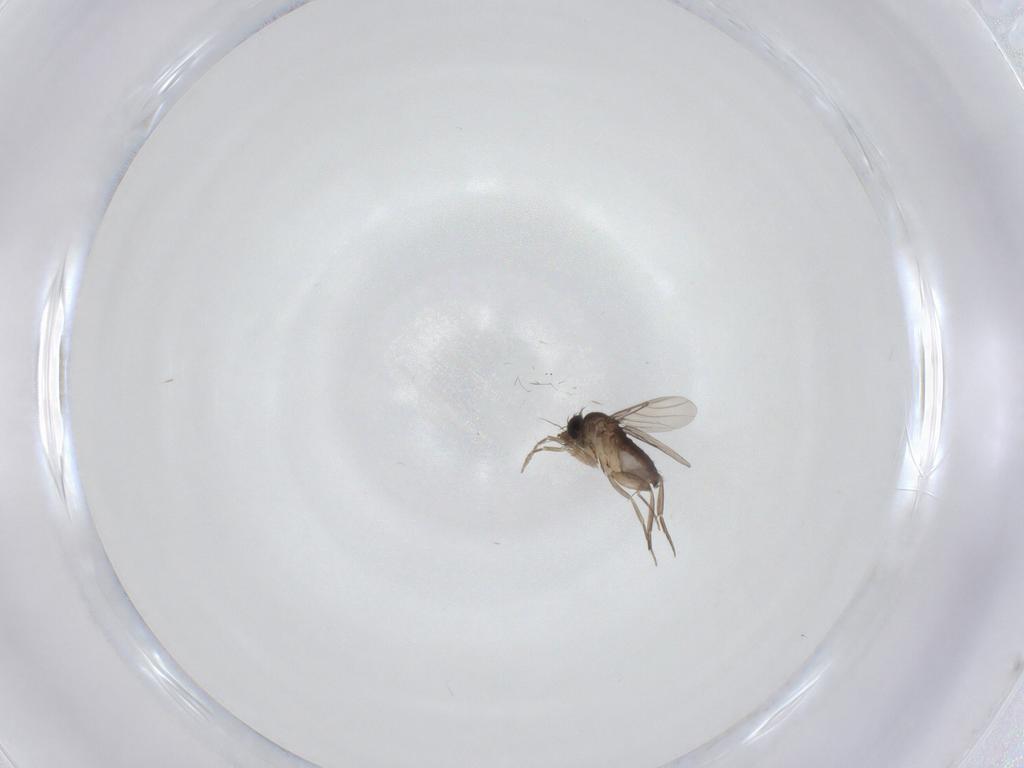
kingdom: Animalia
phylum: Arthropoda
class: Insecta
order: Diptera
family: Phoridae
